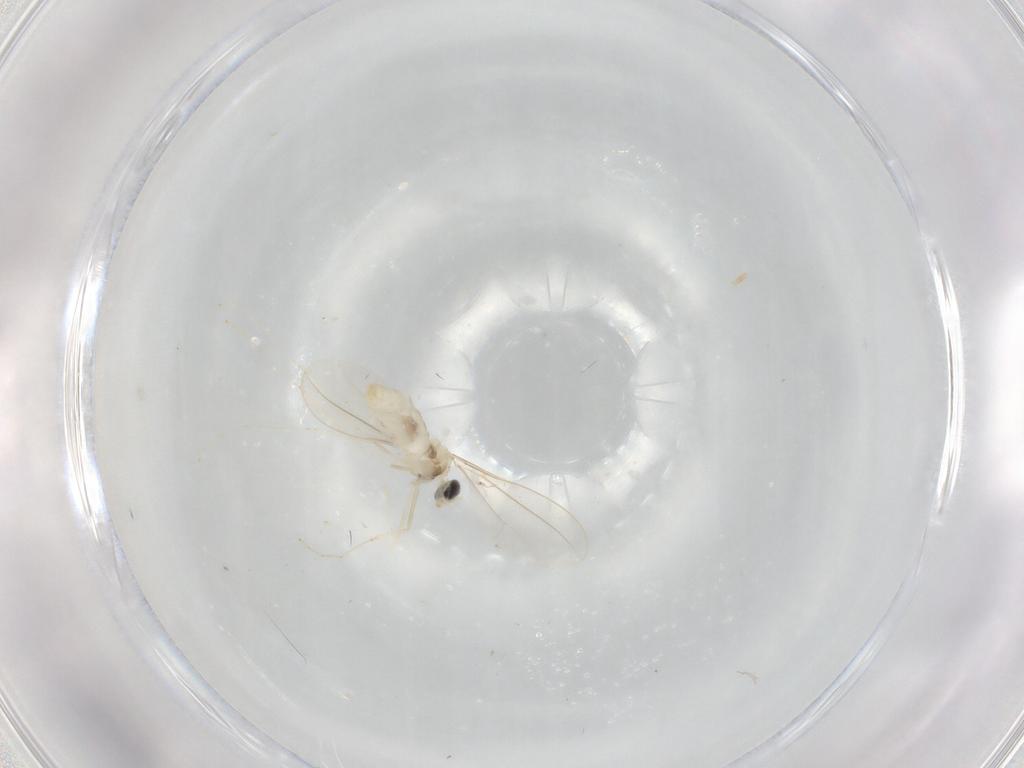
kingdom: Animalia
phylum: Arthropoda
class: Insecta
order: Diptera
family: Cecidomyiidae
